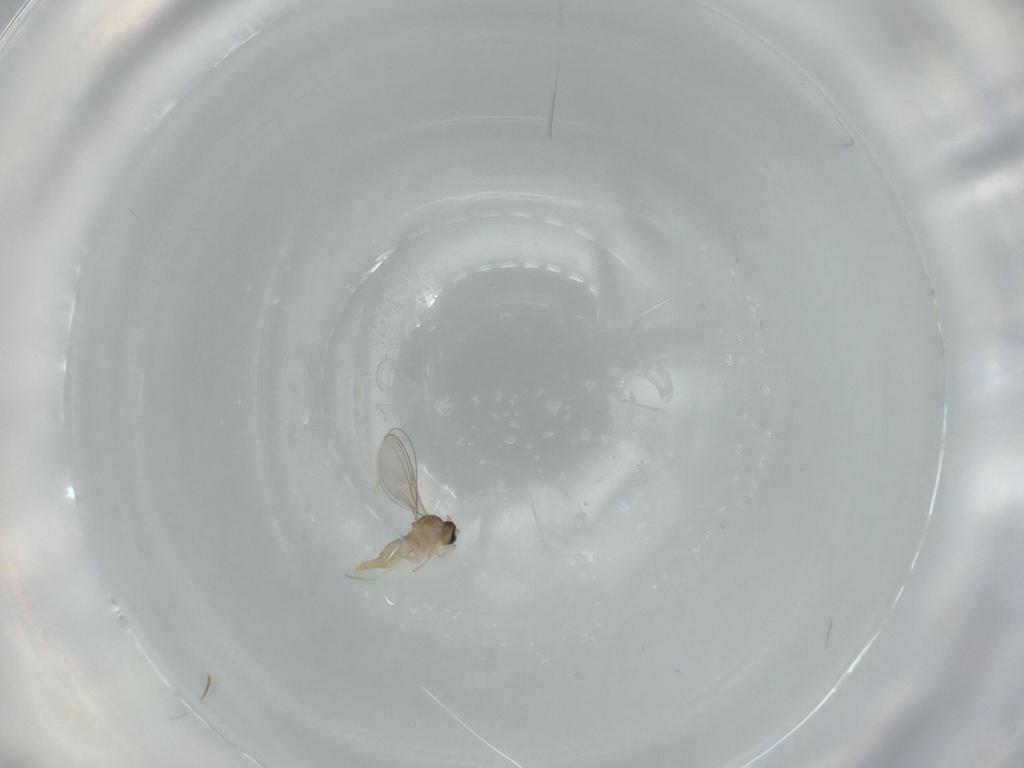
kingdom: Animalia
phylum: Arthropoda
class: Insecta
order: Diptera
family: Cecidomyiidae
